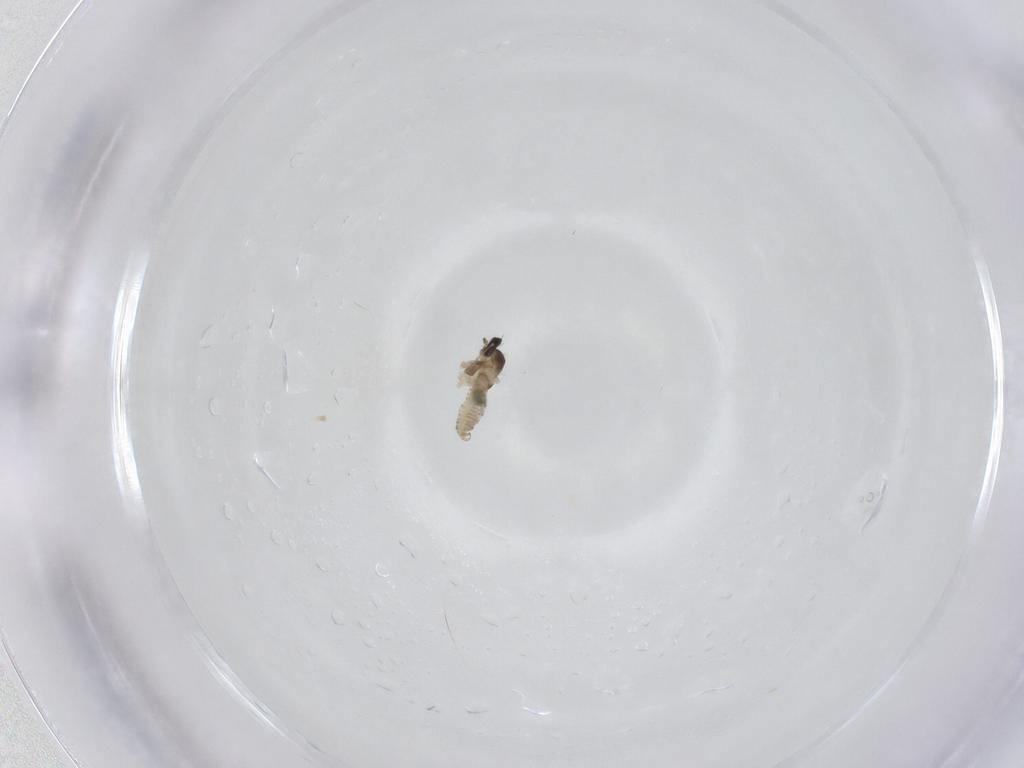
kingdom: Animalia
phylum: Arthropoda
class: Insecta
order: Diptera
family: Cecidomyiidae
